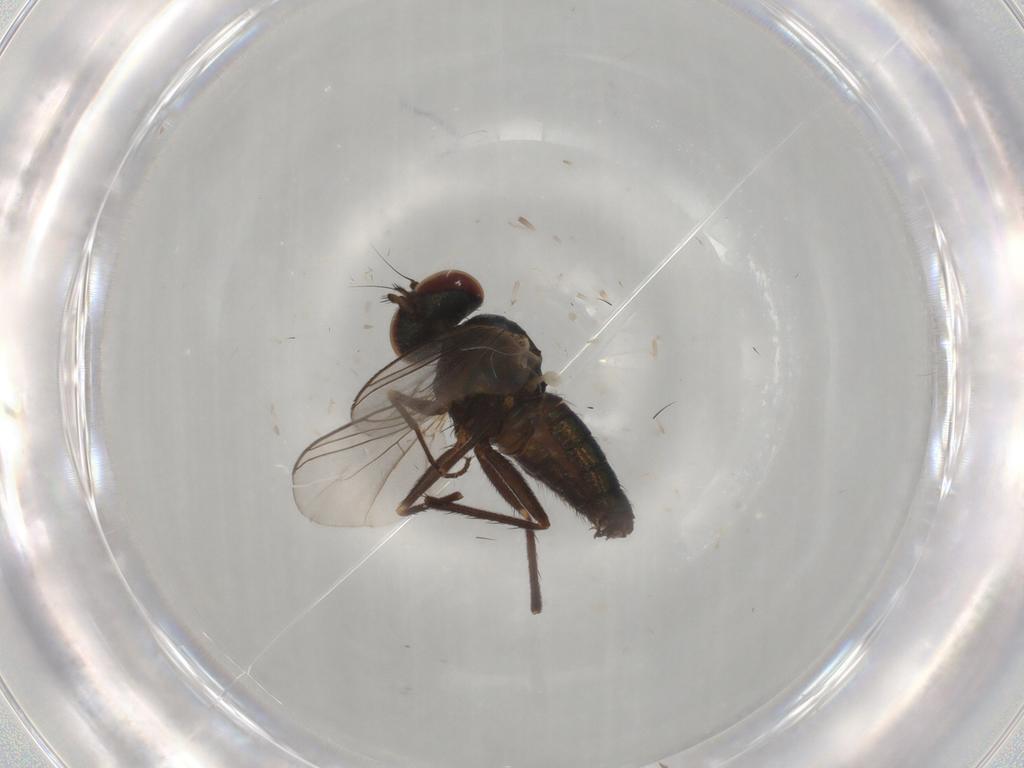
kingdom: Animalia
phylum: Arthropoda
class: Insecta
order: Diptera
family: Dolichopodidae
